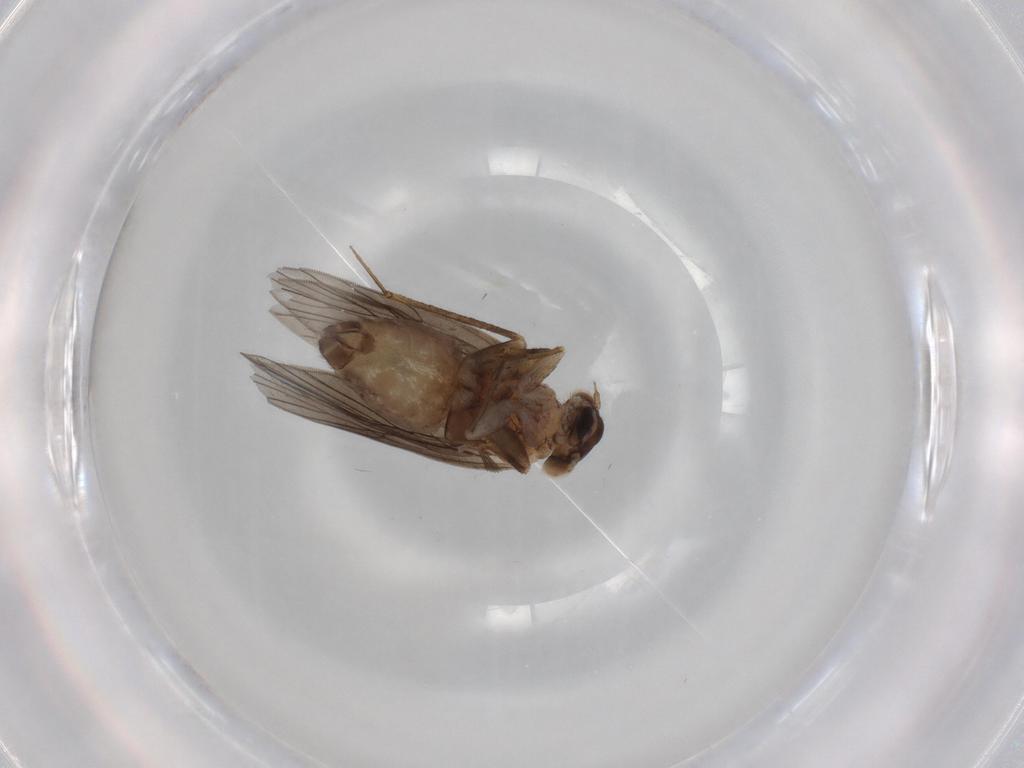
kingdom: Animalia
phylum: Arthropoda
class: Insecta
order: Psocodea
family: Lepidopsocidae
